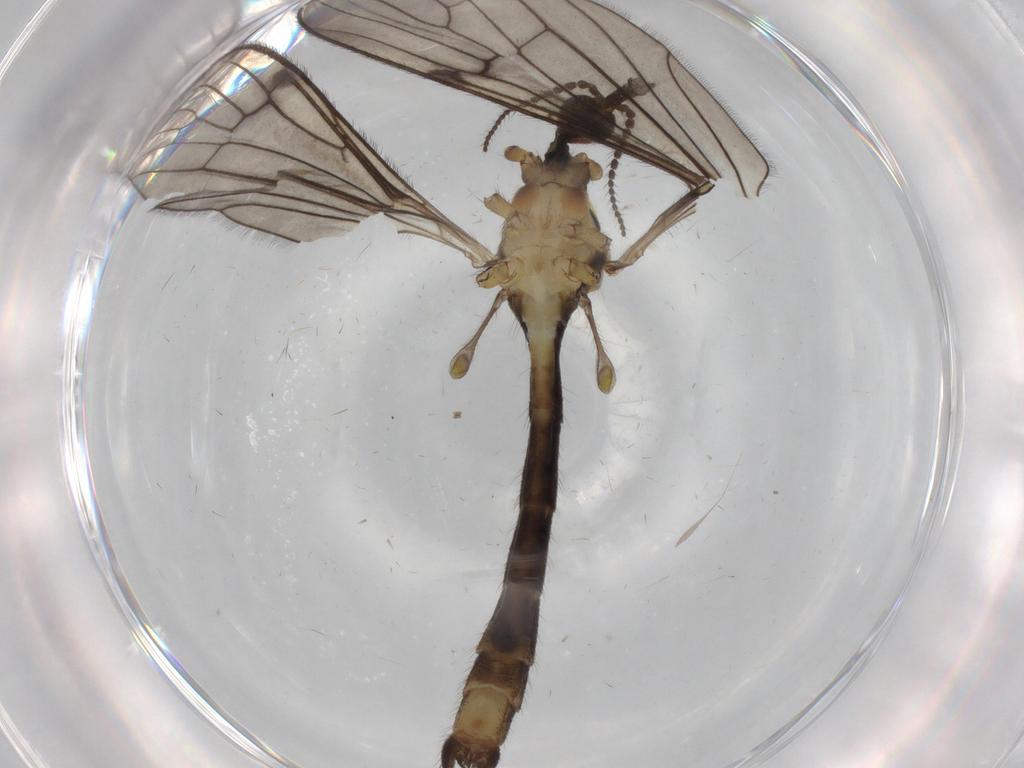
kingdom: Animalia
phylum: Arthropoda
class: Insecta
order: Diptera
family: Limoniidae
